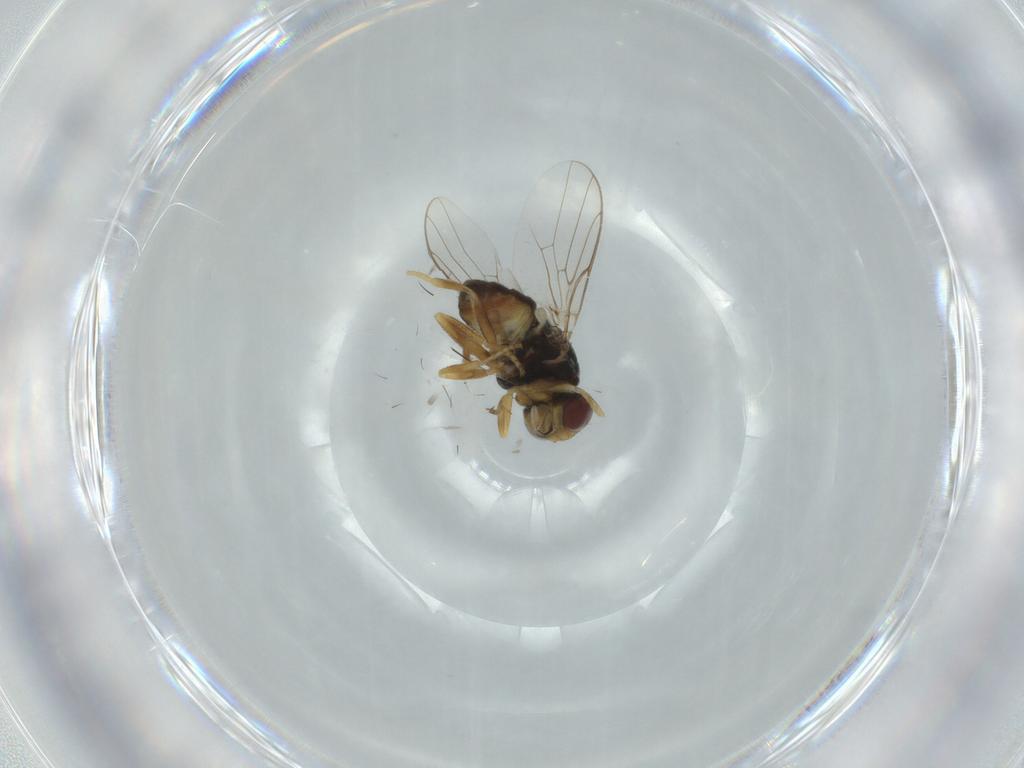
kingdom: Animalia
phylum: Arthropoda
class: Insecta
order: Diptera
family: Chloropidae
